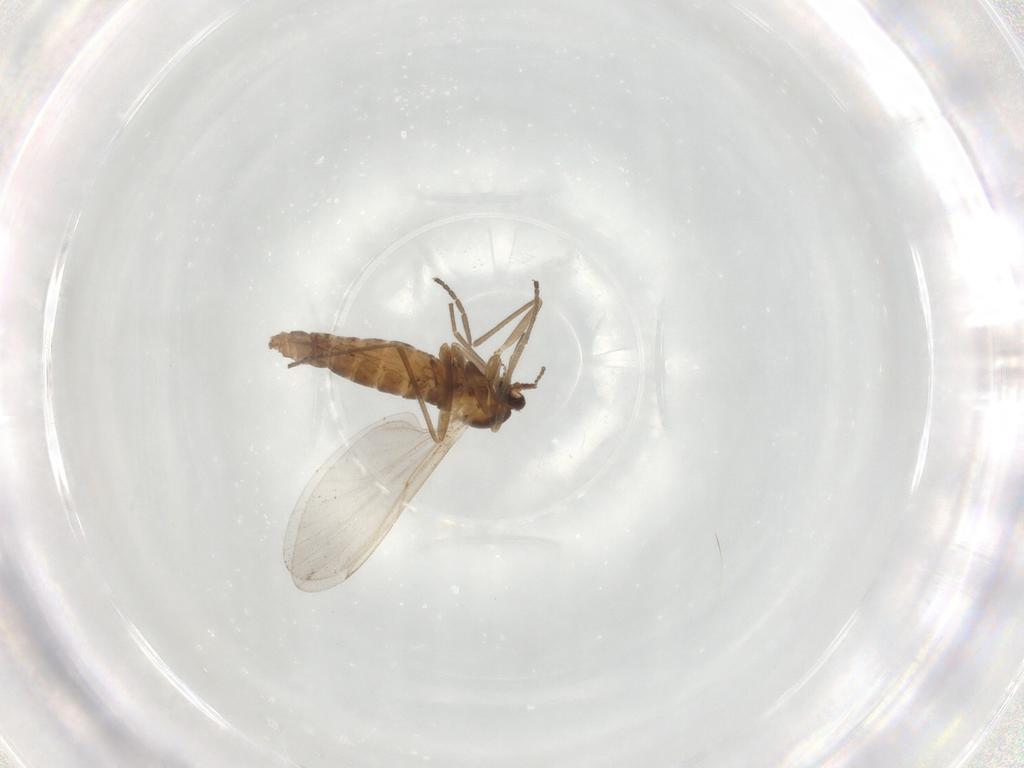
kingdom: Animalia
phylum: Arthropoda
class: Insecta
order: Diptera
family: Cecidomyiidae
